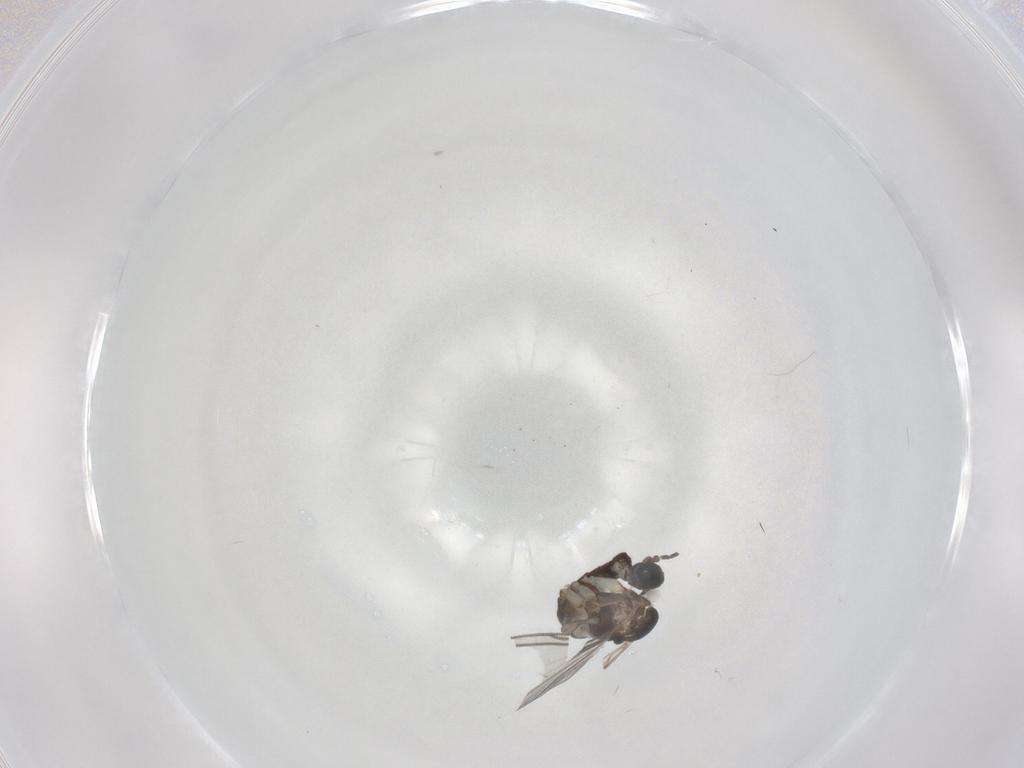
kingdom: Animalia
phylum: Arthropoda
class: Insecta
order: Diptera
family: Sciaridae
